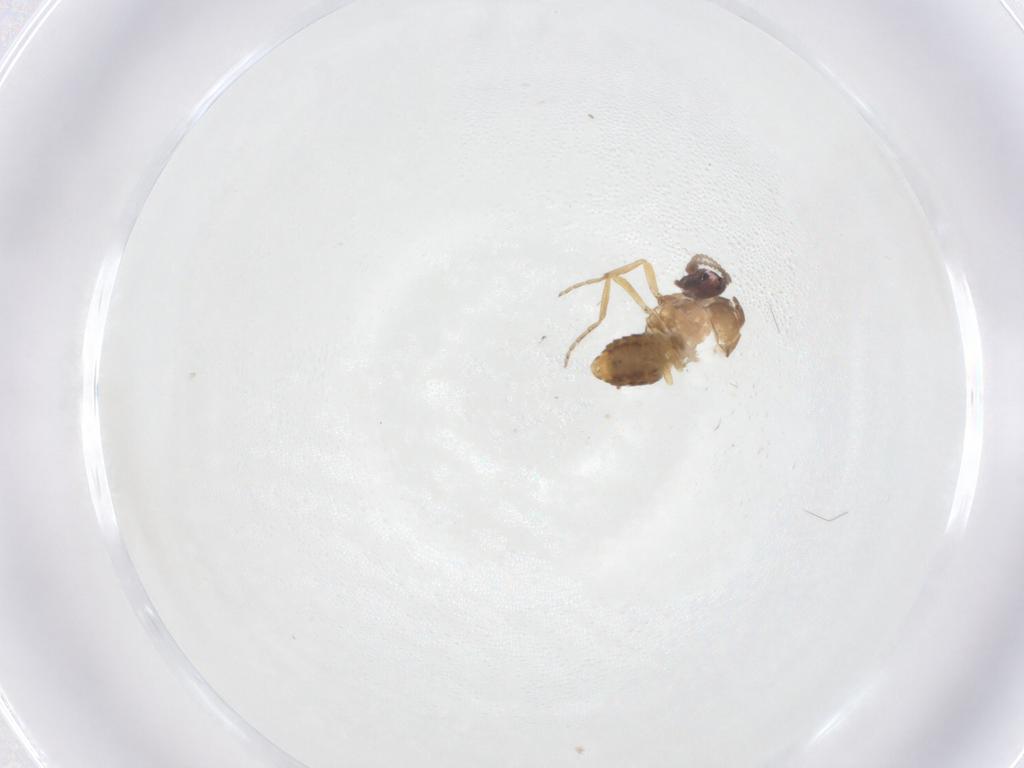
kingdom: Animalia
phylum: Arthropoda
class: Insecta
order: Diptera
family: Ceratopogonidae
